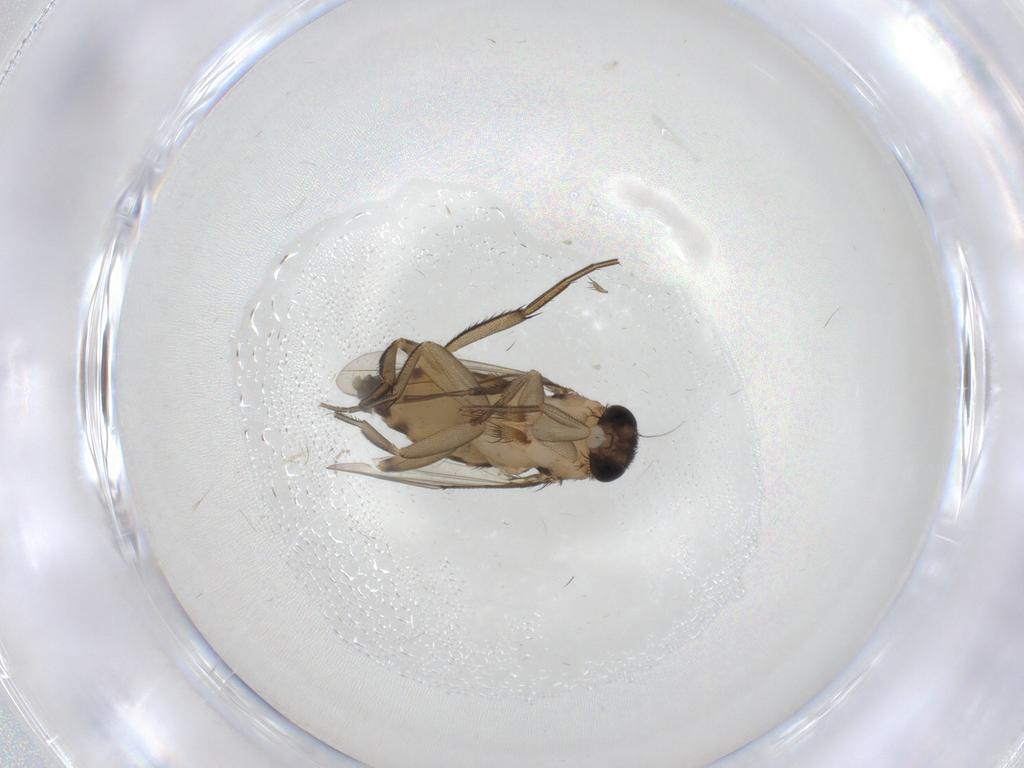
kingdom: Animalia
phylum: Arthropoda
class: Insecta
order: Diptera
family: Phoridae
